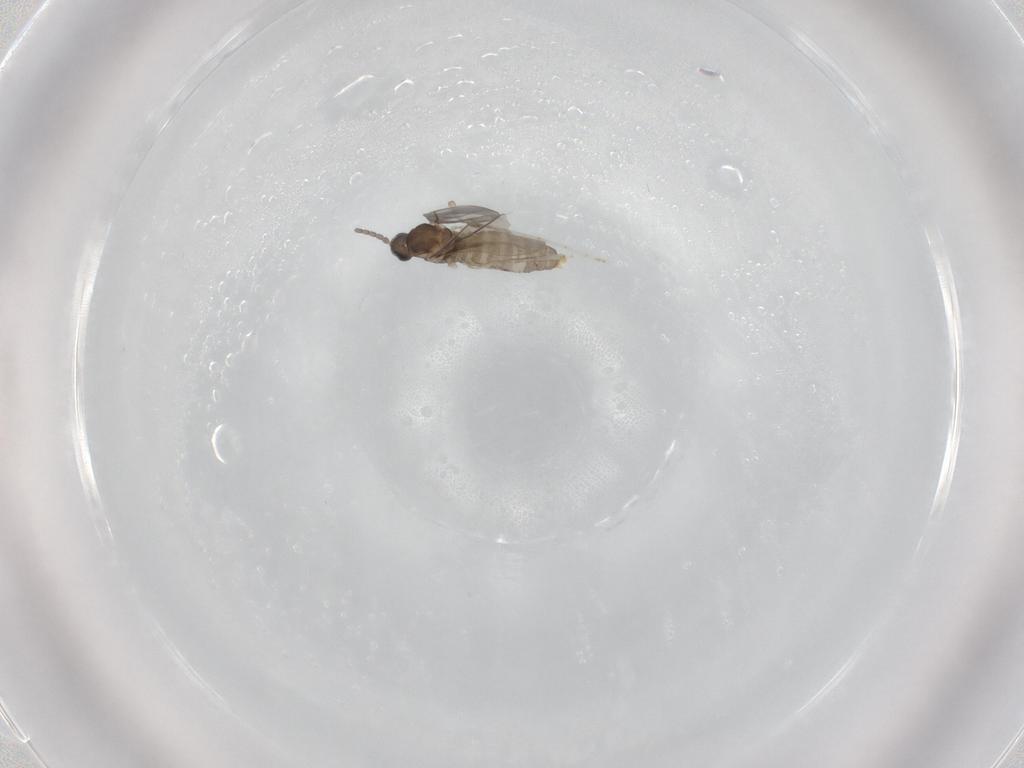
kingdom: Animalia
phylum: Arthropoda
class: Insecta
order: Diptera
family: Cecidomyiidae
